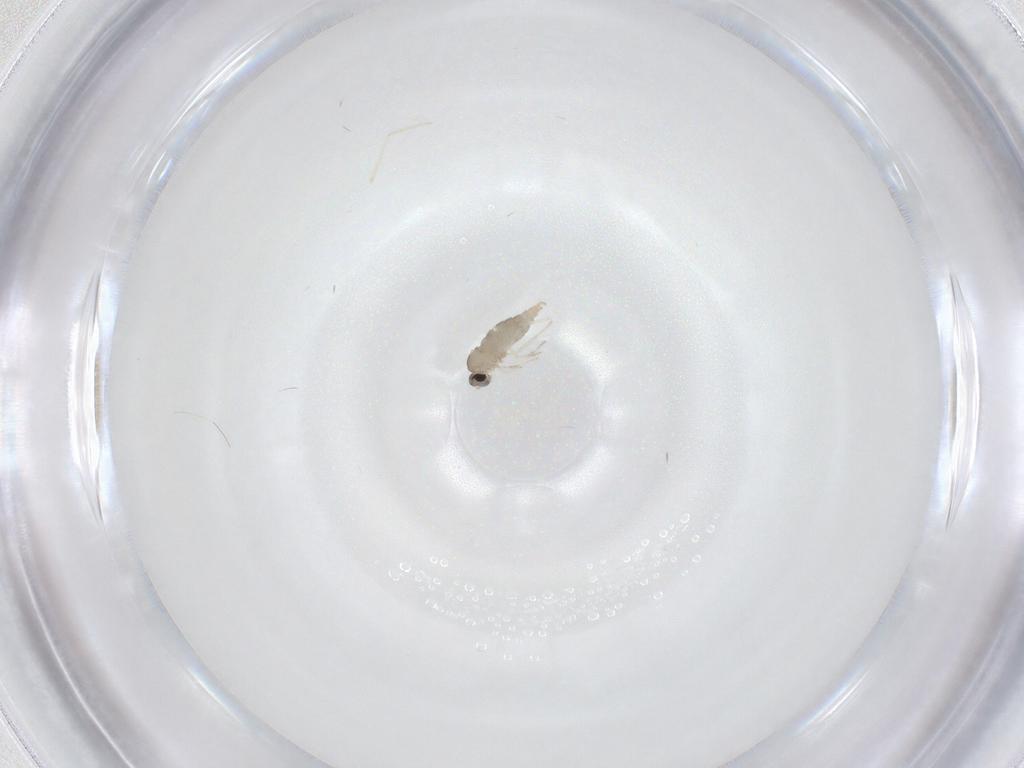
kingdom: Animalia
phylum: Arthropoda
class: Insecta
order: Diptera
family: Cecidomyiidae
